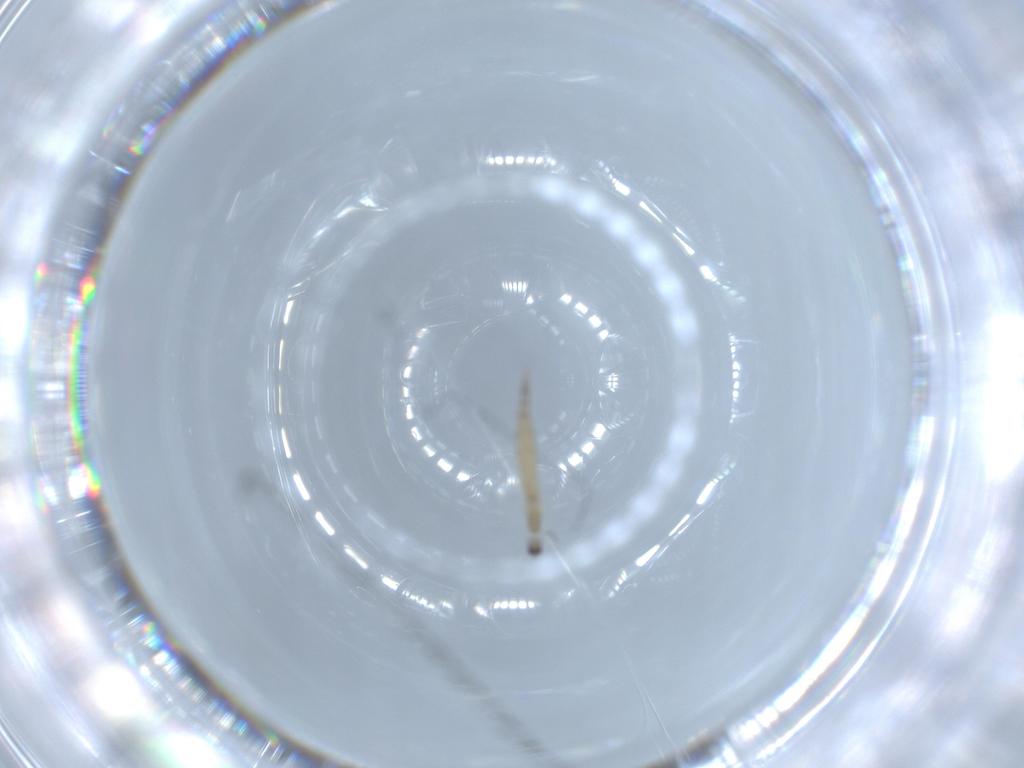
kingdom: Animalia
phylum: Arthropoda
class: Insecta
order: Diptera
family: Cecidomyiidae
